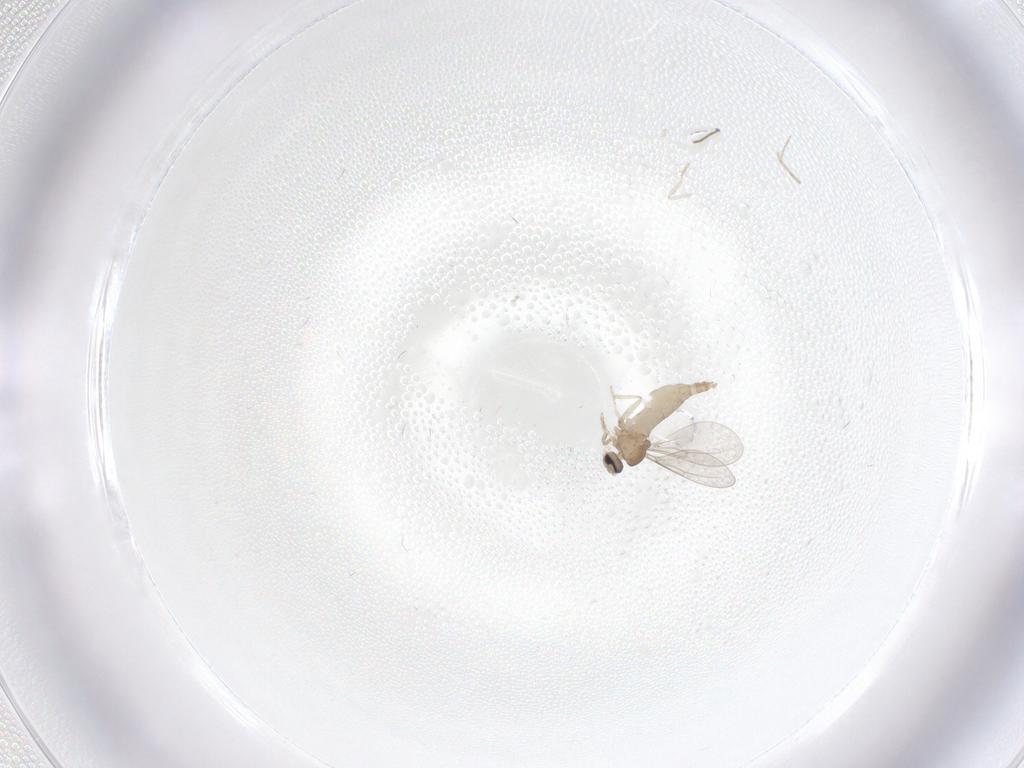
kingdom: Animalia
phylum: Arthropoda
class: Insecta
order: Diptera
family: Cecidomyiidae
